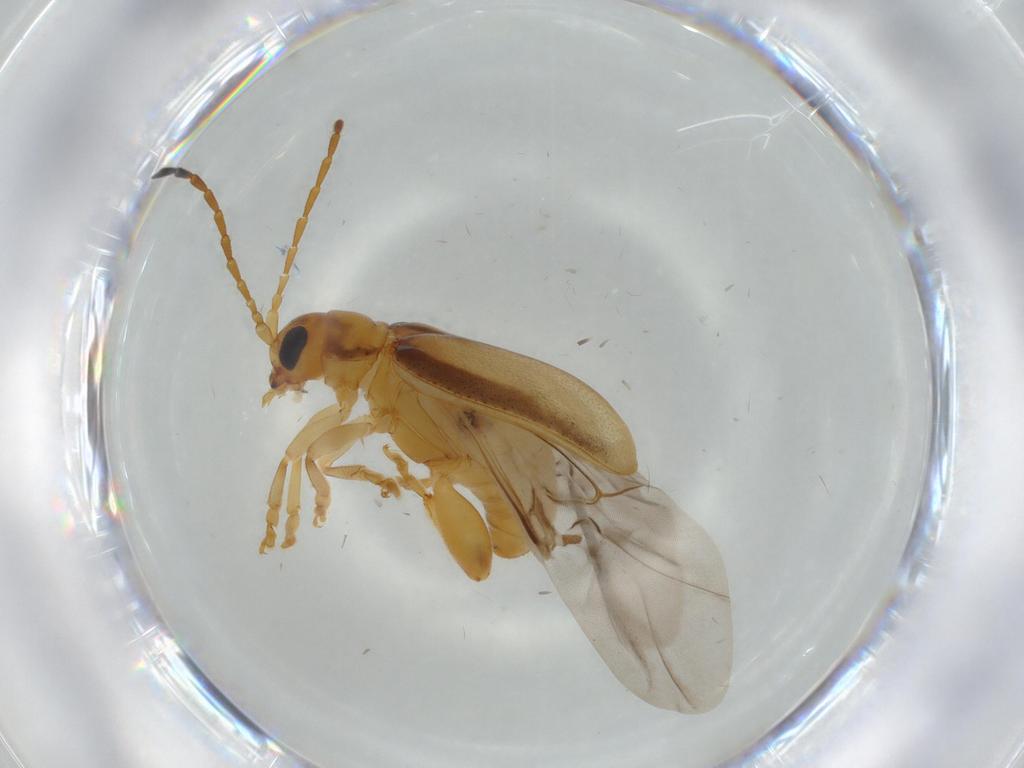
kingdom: Animalia
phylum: Arthropoda
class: Insecta
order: Coleoptera
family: Chrysomelidae
